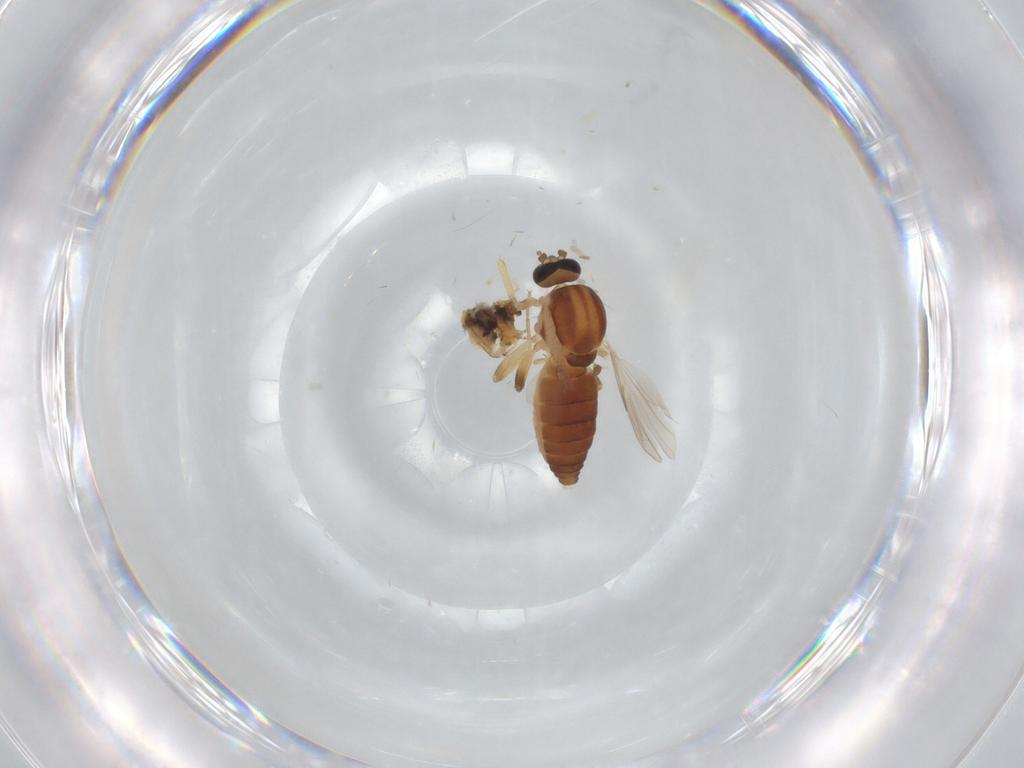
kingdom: Animalia
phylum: Arthropoda
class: Insecta
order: Diptera
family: Ceratopogonidae
